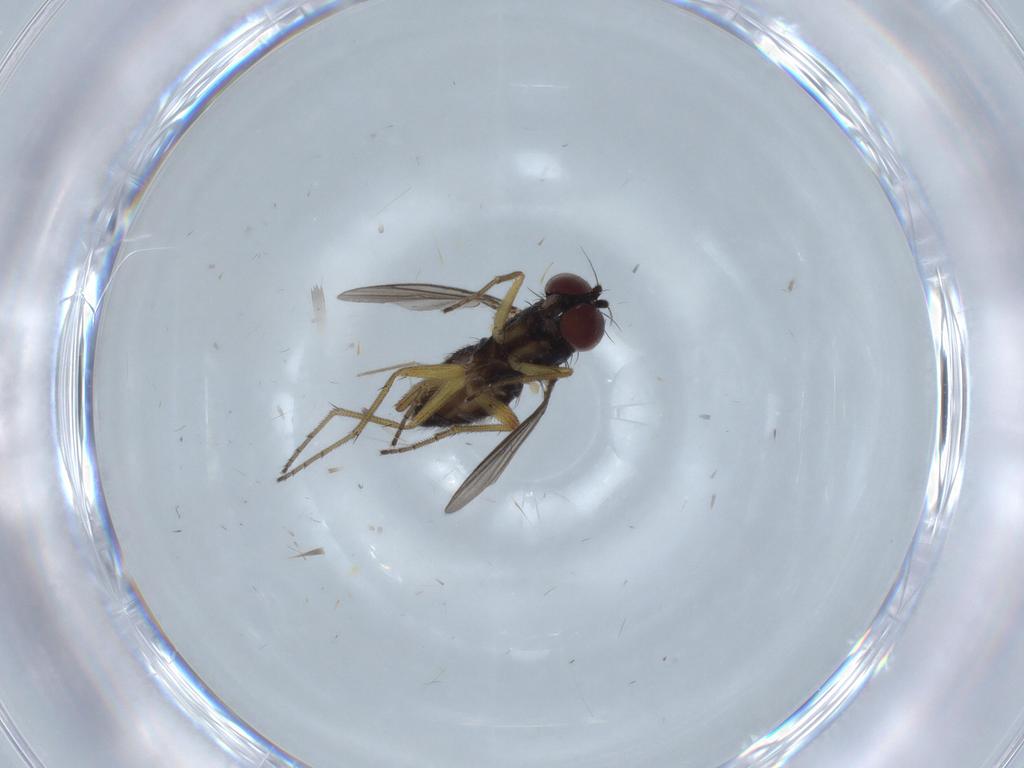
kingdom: Animalia
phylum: Arthropoda
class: Insecta
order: Diptera
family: Dolichopodidae
